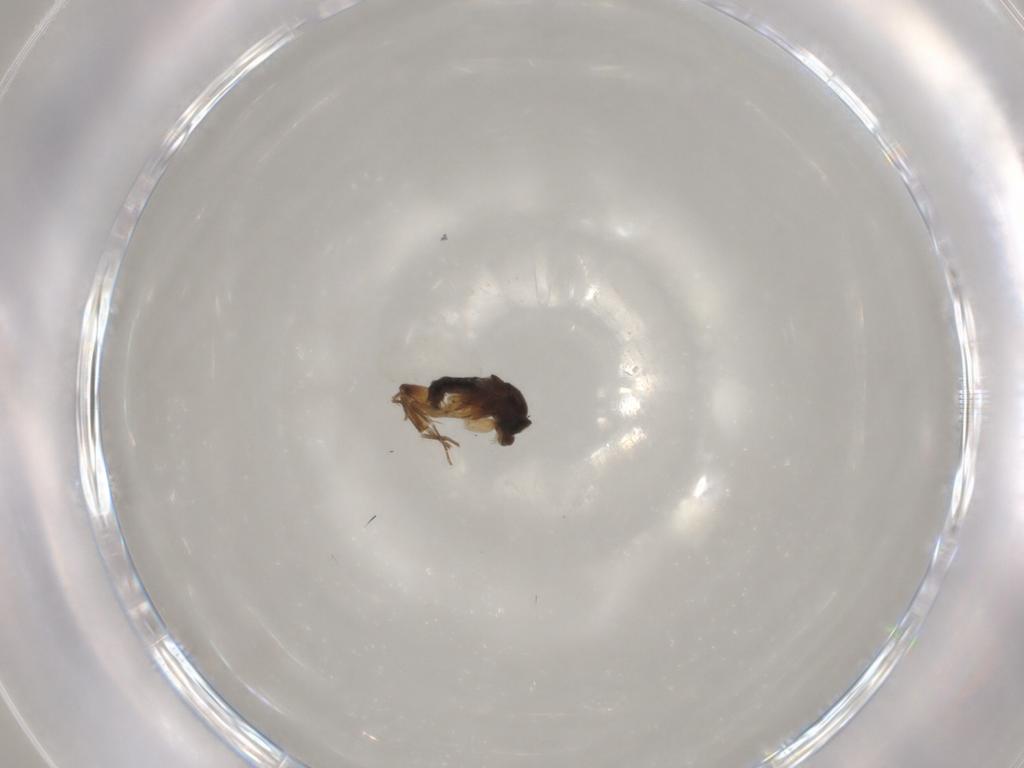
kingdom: Animalia
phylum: Arthropoda
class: Insecta
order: Diptera
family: Phoridae
